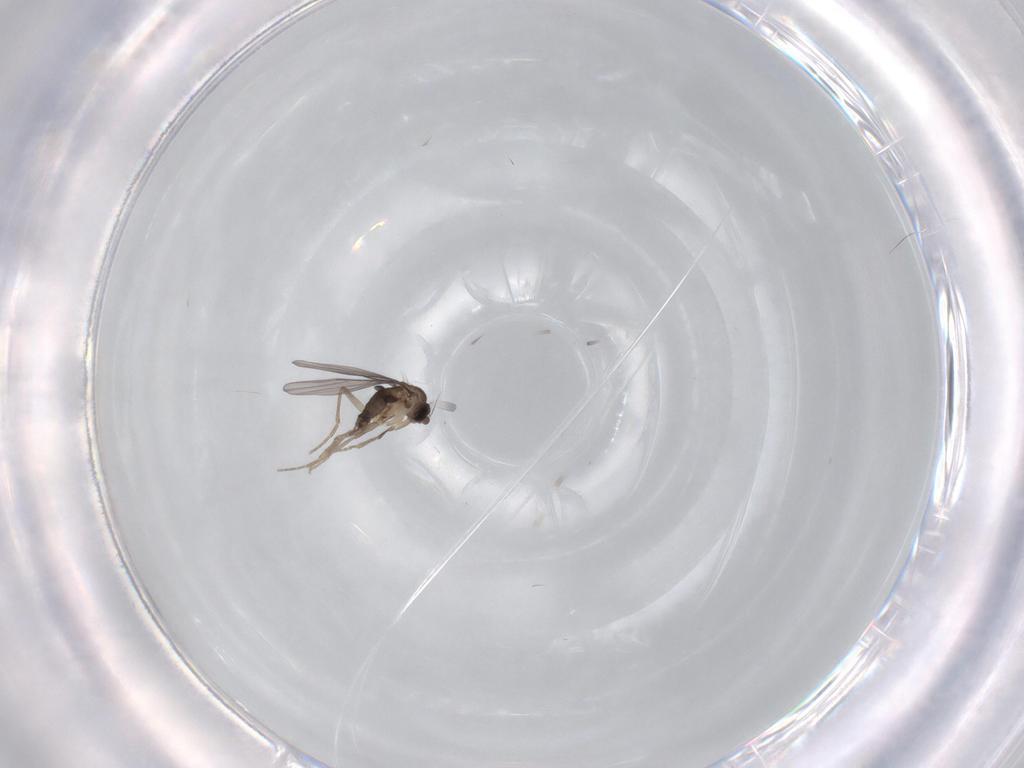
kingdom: Animalia
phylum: Arthropoda
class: Insecta
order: Diptera
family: Phoridae
